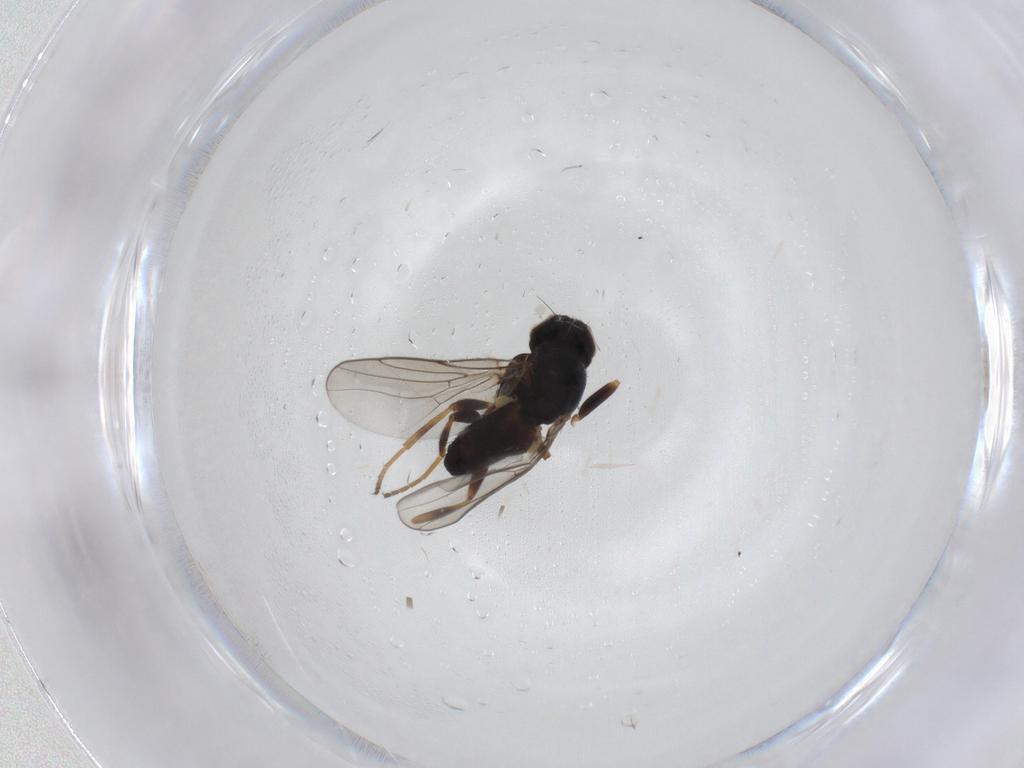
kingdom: Animalia
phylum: Arthropoda
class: Insecta
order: Diptera
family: Chloropidae
